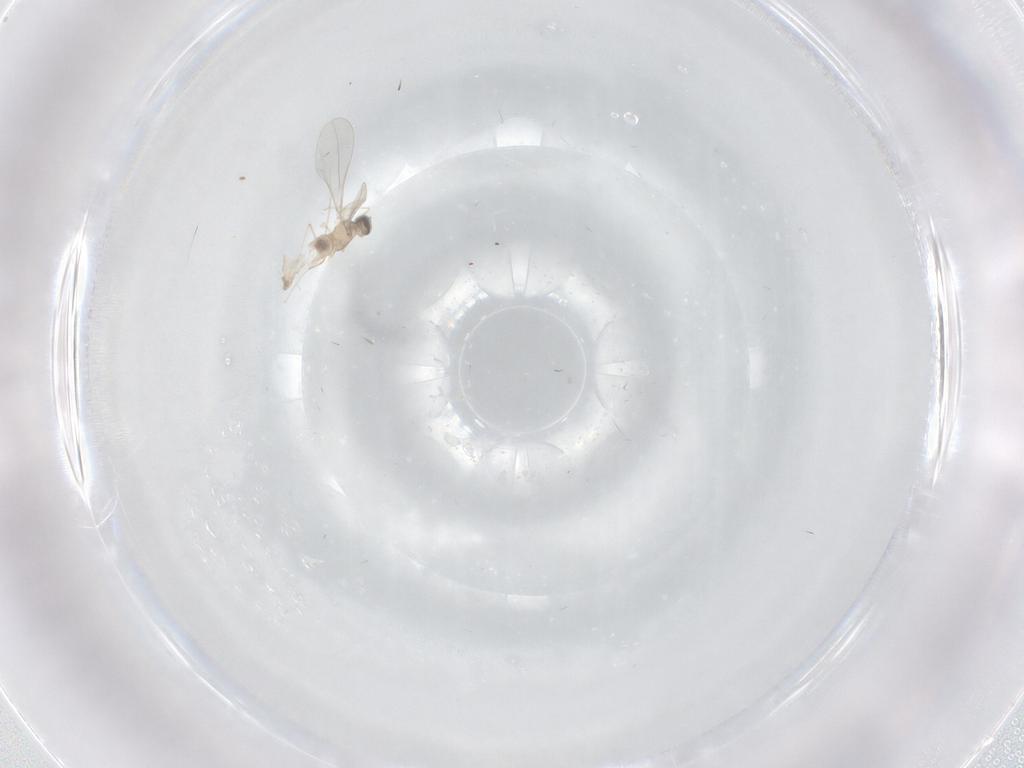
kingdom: Animalia
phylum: Arthropoda
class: Insecta
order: Diptera
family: Cecidomyiidae
